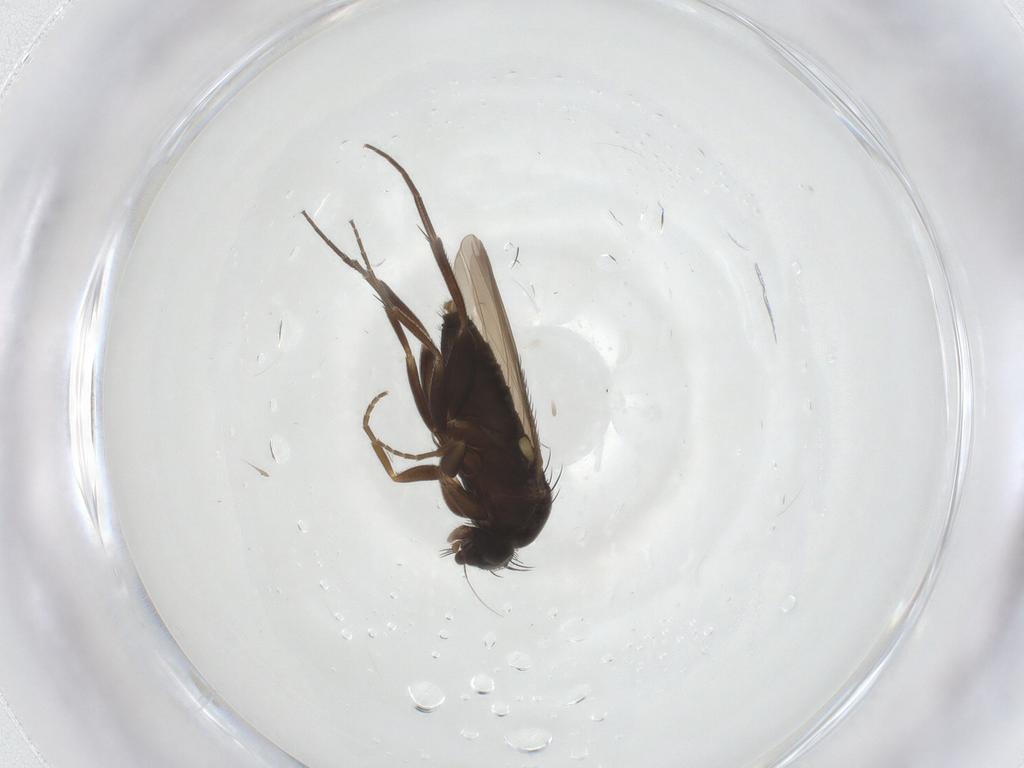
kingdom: Animalia
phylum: Arthropoda
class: Insecta
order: Diptera
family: Phoridae
